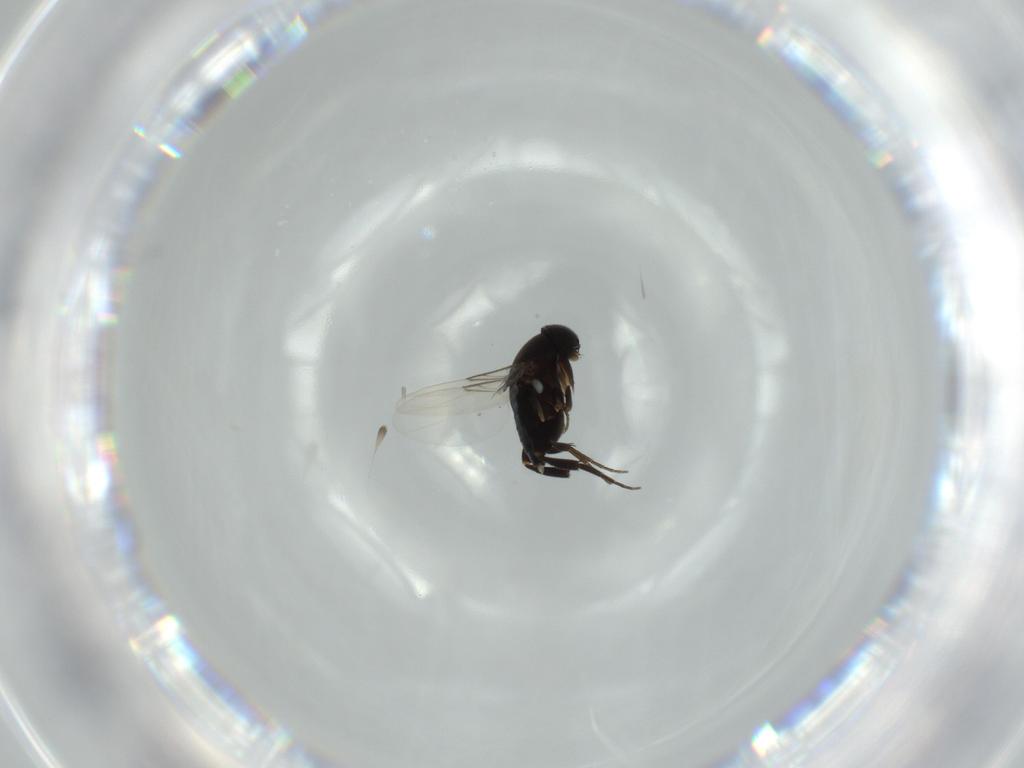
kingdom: Animalia
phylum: Arthropoda
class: Insecta
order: Diptera
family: Phoridae
